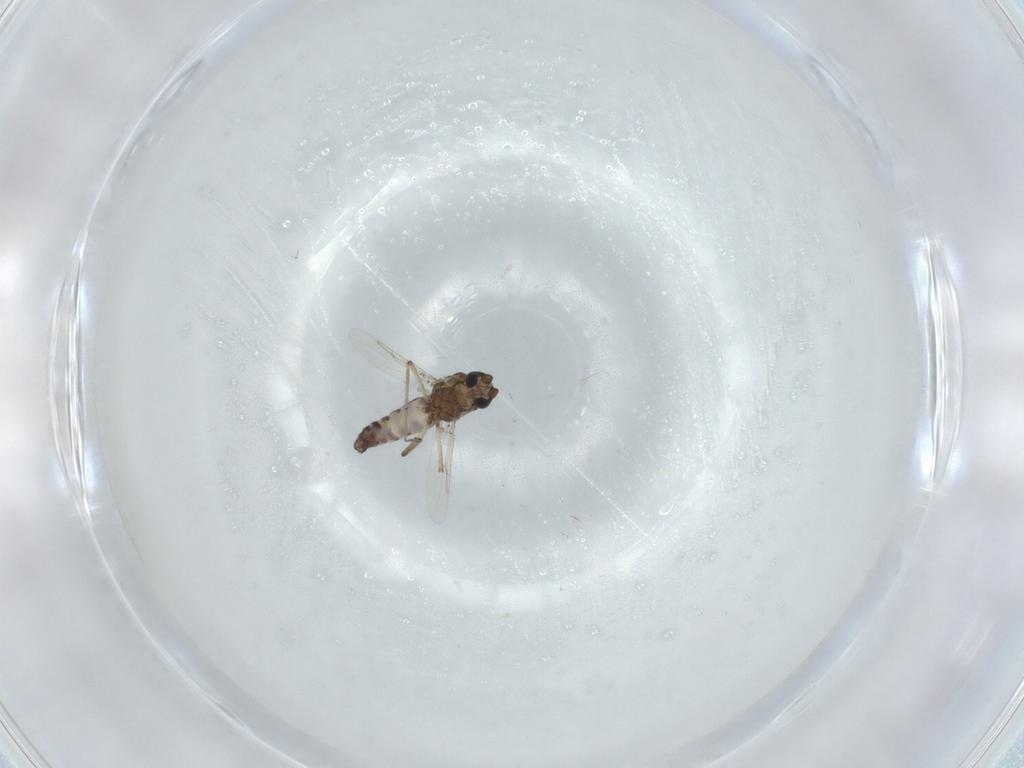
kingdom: Animalia
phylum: Arthropoda
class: Insecta
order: Diptera
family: Ceratopogonidae
